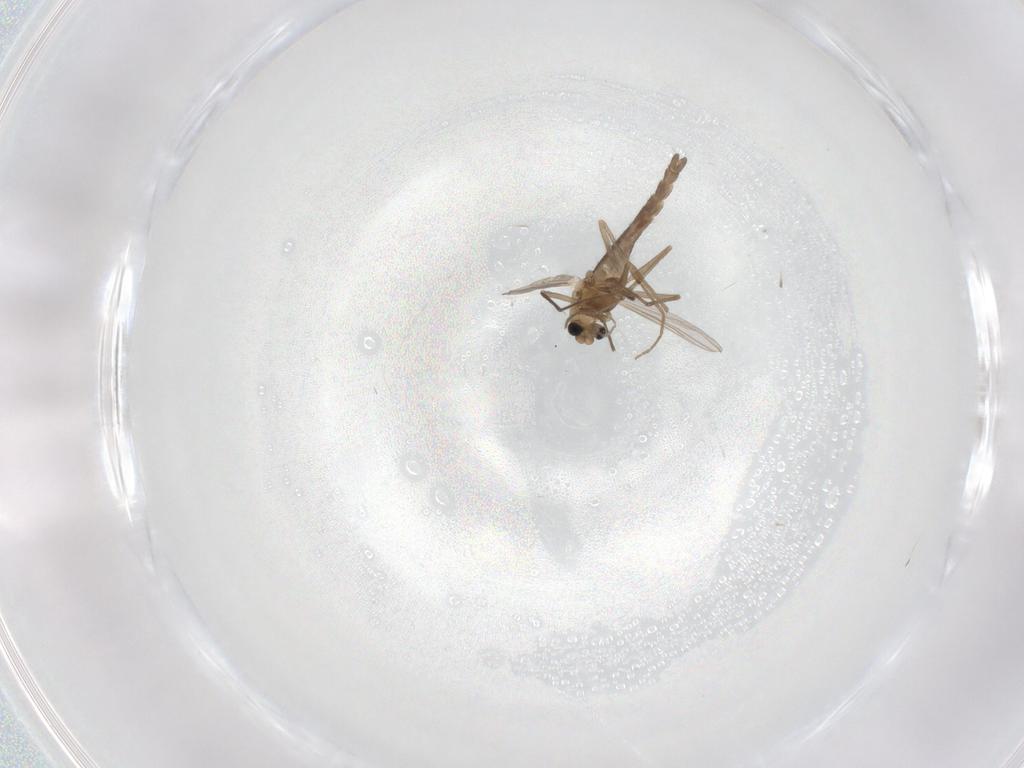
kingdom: Animalia
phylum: Arthropoda
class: Insecta
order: Diptera
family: Chironomidae
